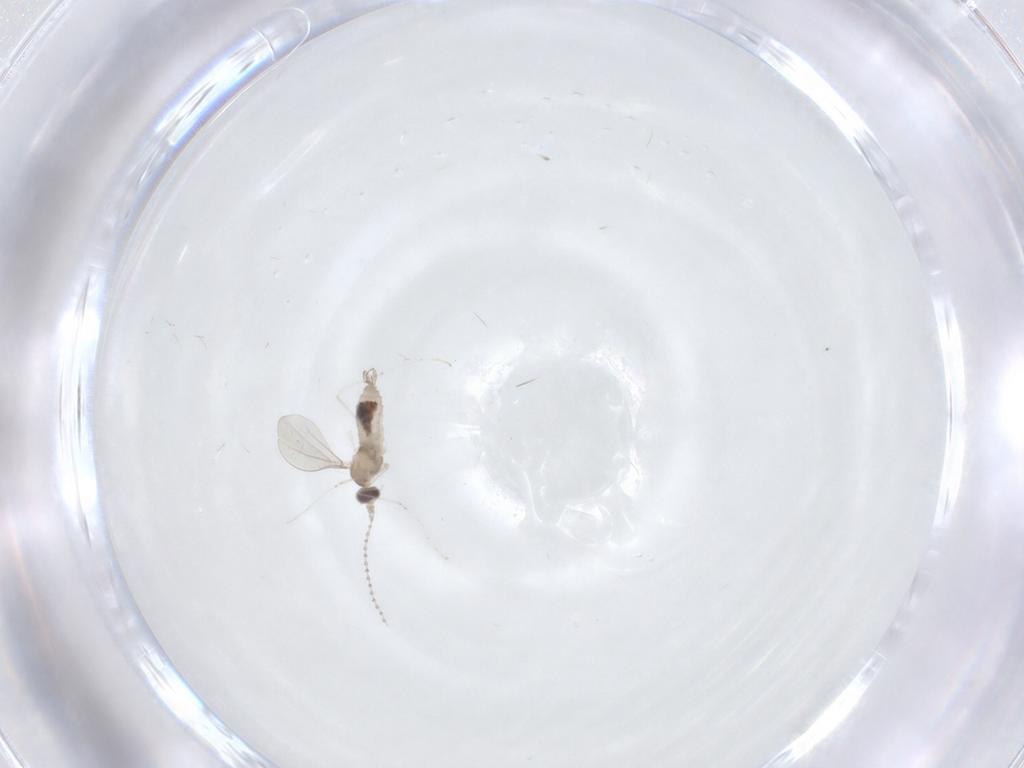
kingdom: Animalia
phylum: Arthropoda
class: Insecta
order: Diptera
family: Cecidomyiidae
